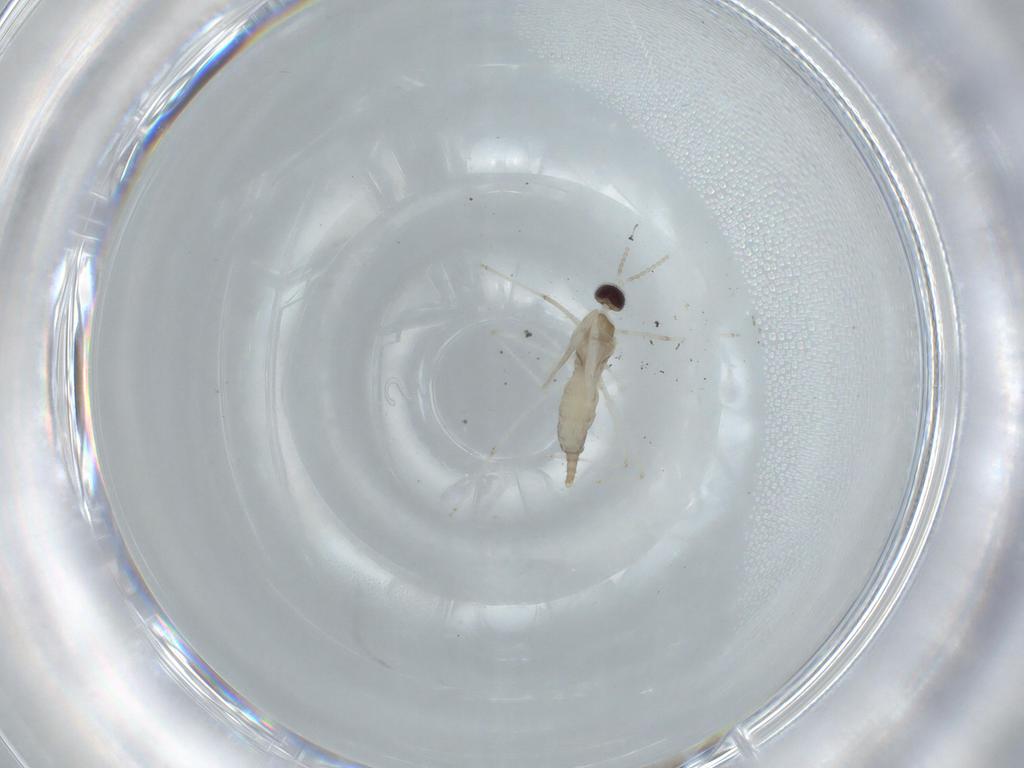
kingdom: Animalia
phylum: Arthropoda
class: Insecta
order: Diptera
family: Cecidomyiidae
